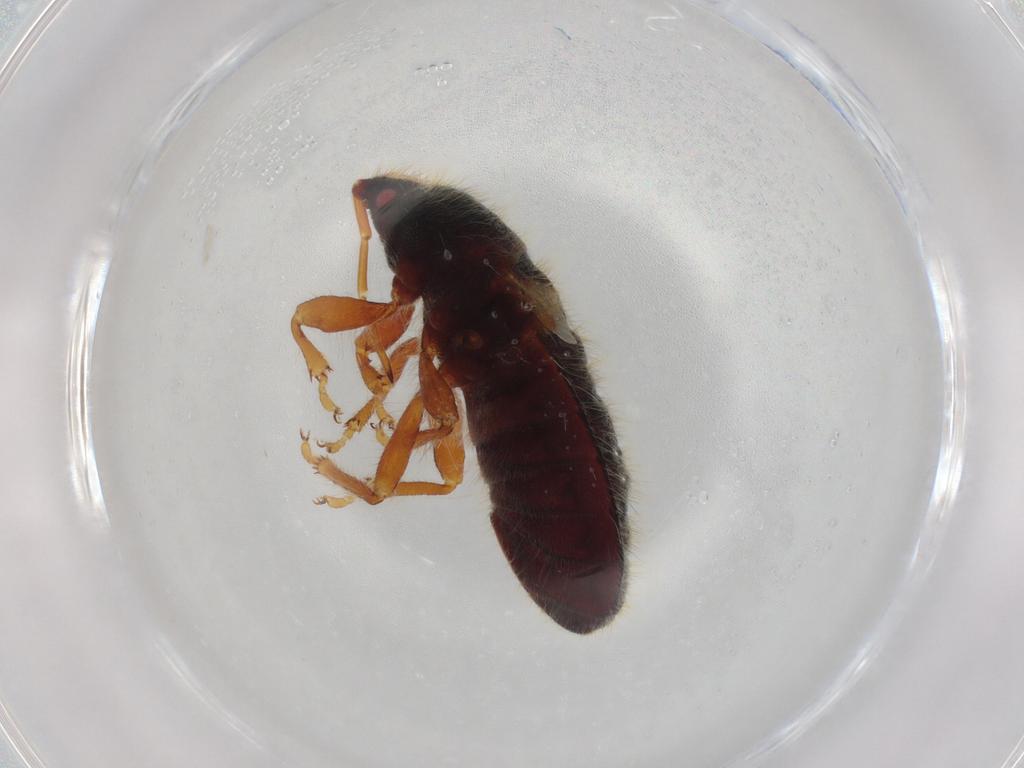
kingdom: Animalia
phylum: Arthropoda
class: Insecta
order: Hemiptera
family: Saldidae
